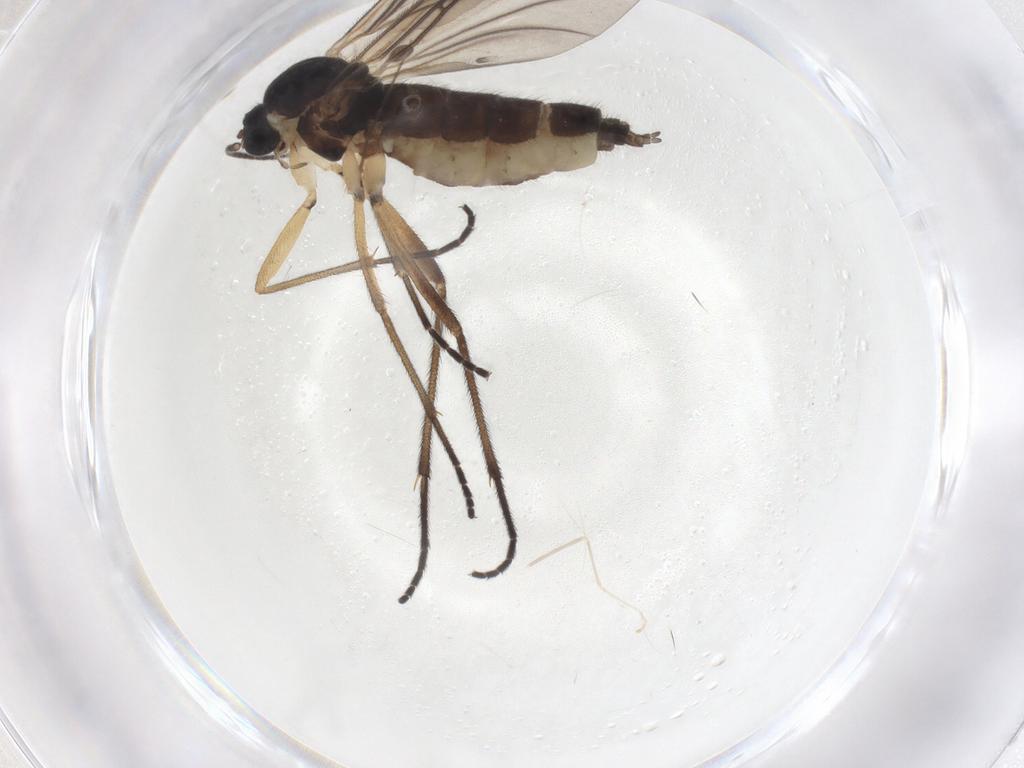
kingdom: Animalia
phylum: Arthropoda
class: Insecta
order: Diptera
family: Sciaridae
